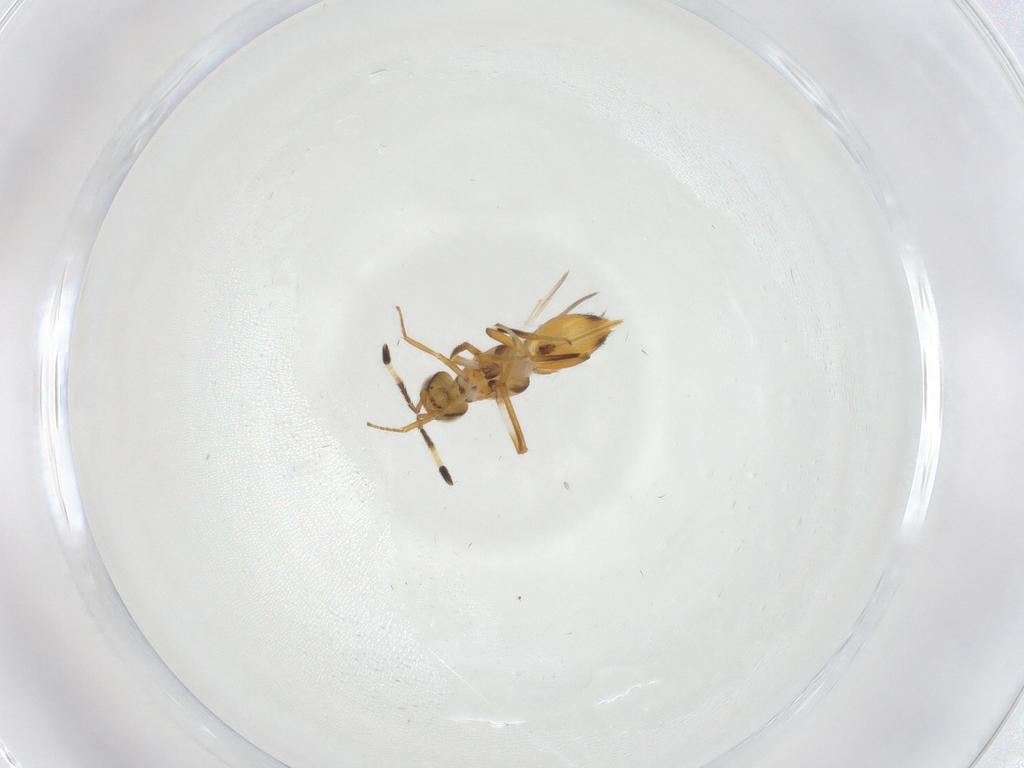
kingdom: Animalia
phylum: Arthropoda
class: Insecta
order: Hymenoptera
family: Encyrtidae
